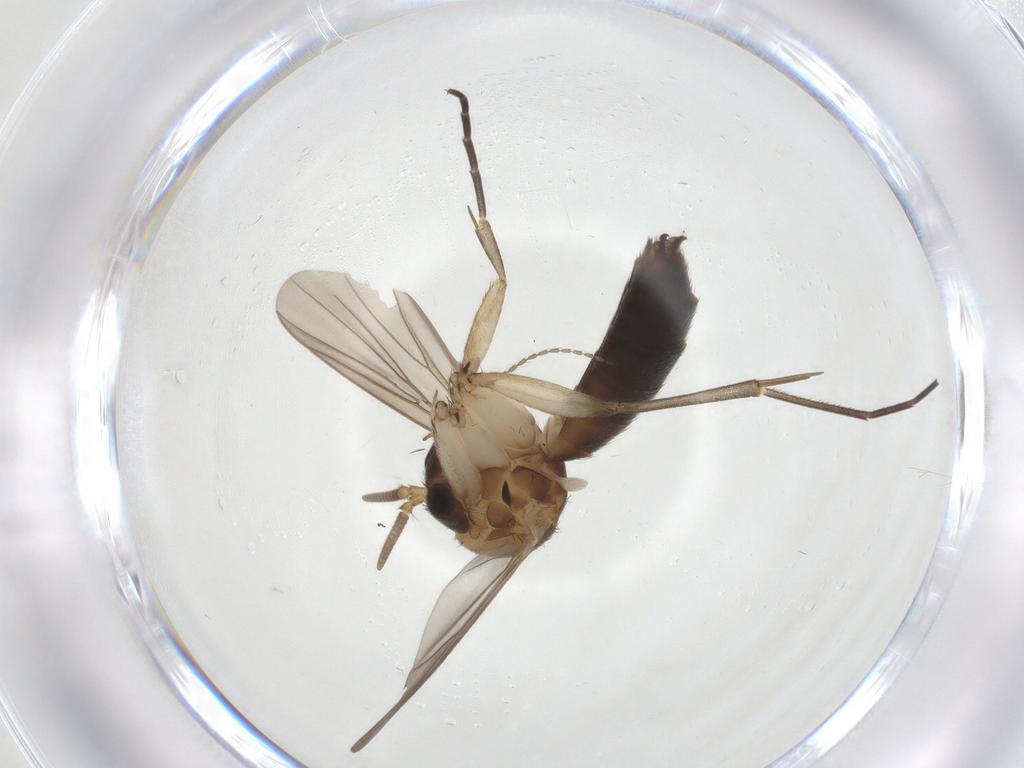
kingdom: Animalia
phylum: Arthropoda
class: Insecta
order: Diptera
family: Mycetophilidae
